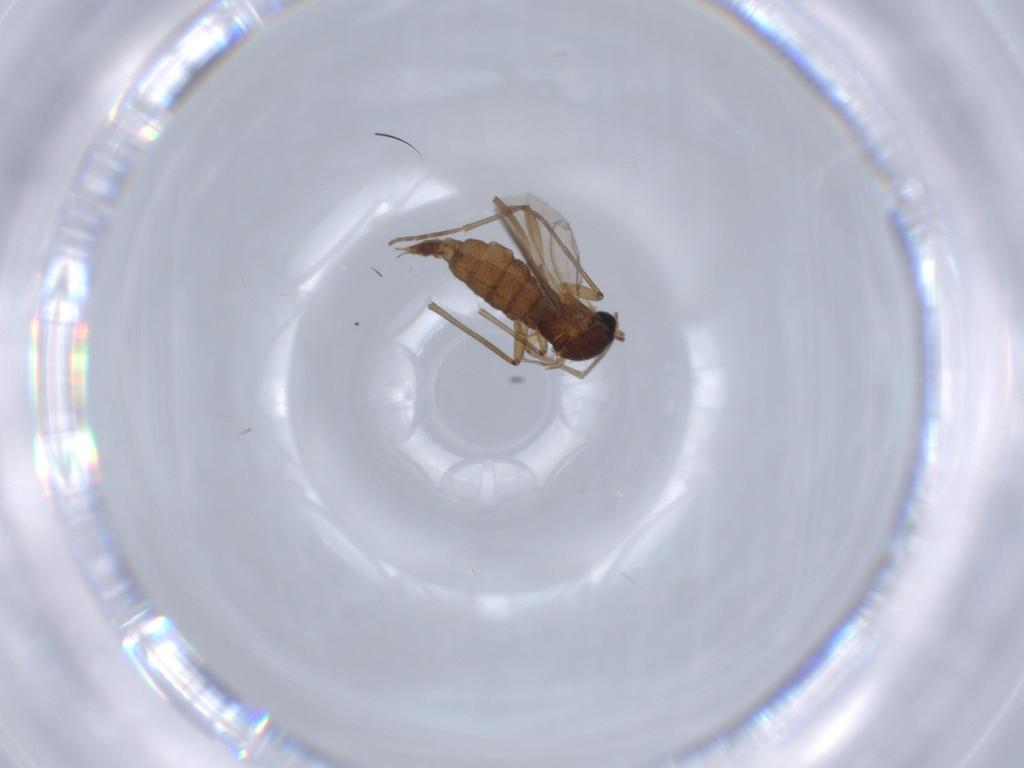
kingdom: Animalia
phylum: Arthropoda
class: Insecta
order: Diptera
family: Sciaridae
